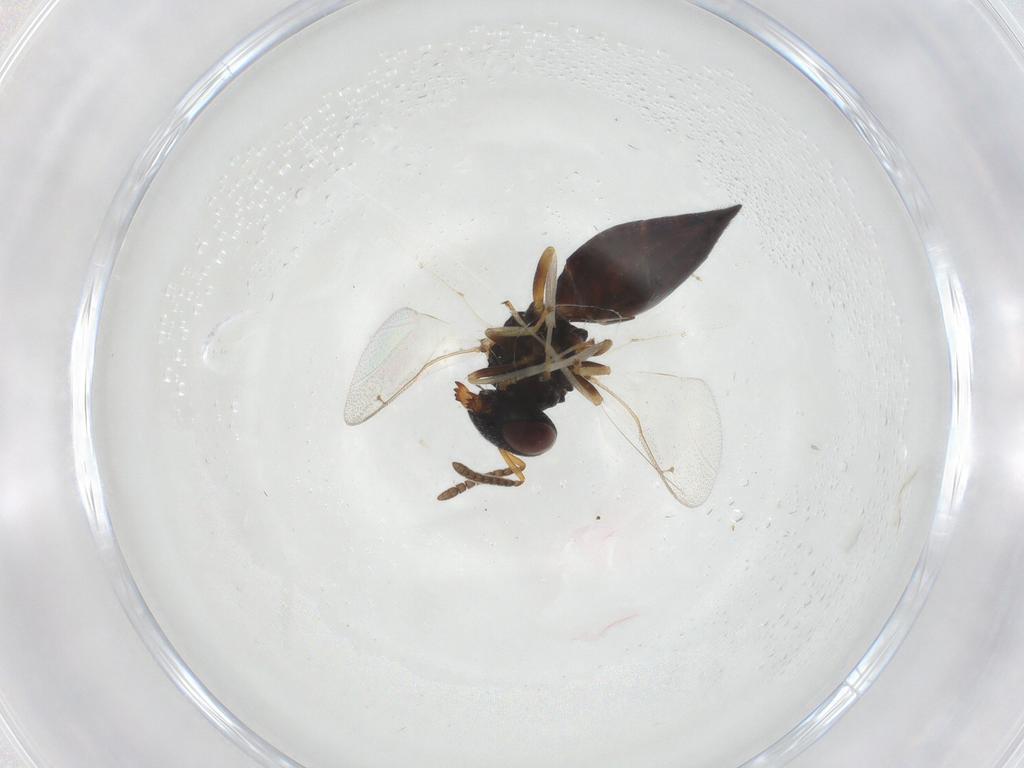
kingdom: Animalia
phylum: Arthropoda
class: Insecta
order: Hymenoptera
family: Pteromalidae
